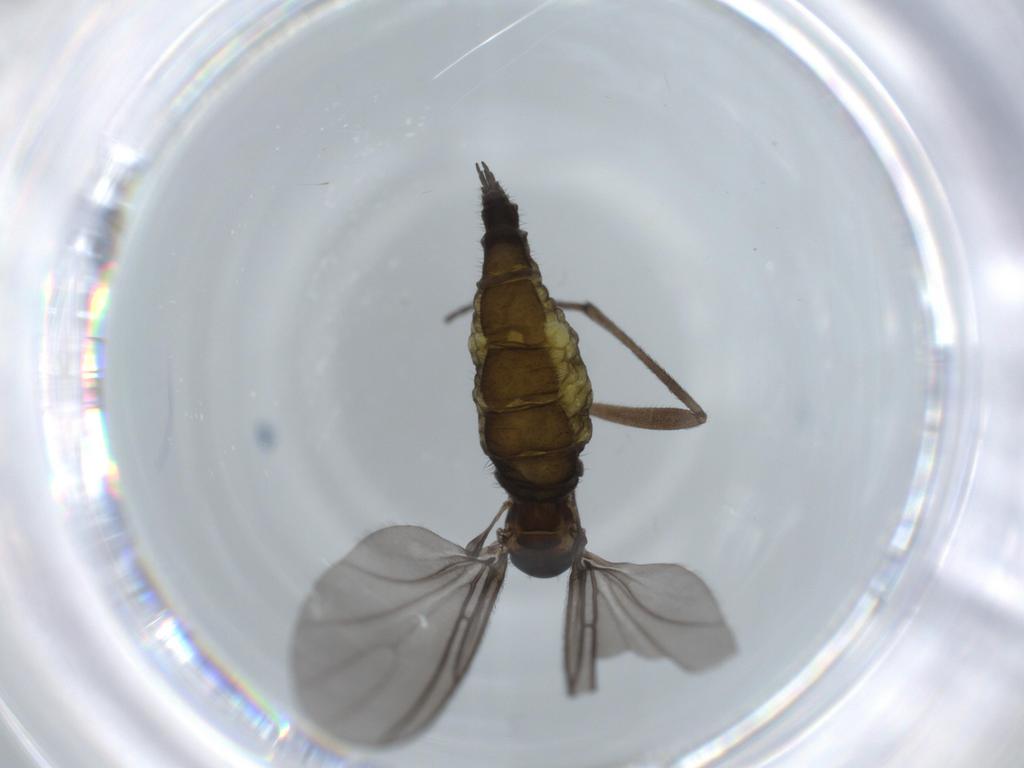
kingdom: Animalia
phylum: Arthropoda
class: Insecta
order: Diptera
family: Sciaridae
